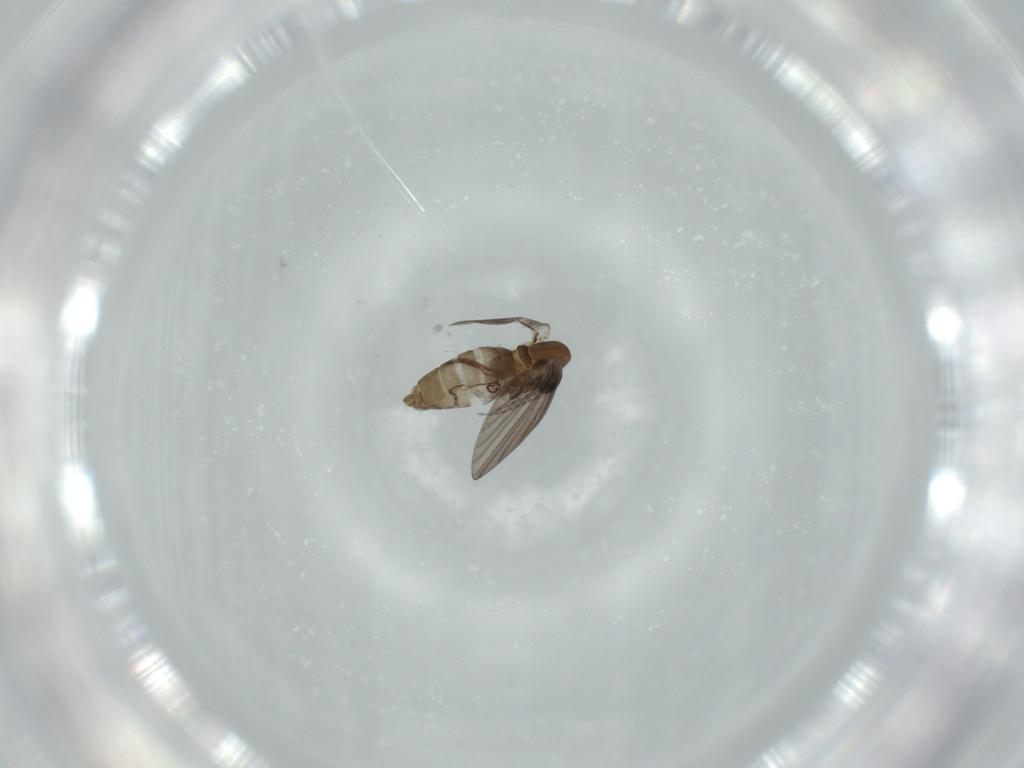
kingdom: Animalia
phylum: Arthropoda
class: Insecta
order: Diptera
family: Psychodidae
